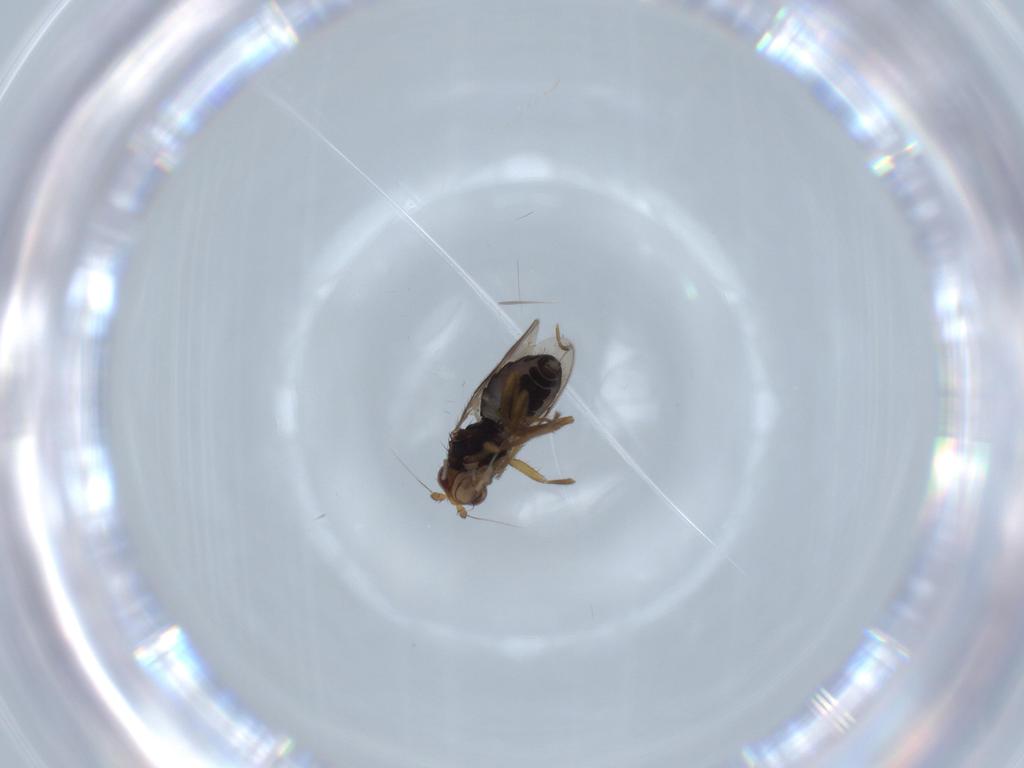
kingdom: Animalia
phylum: Arthropoda
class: Insecta
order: Diptera
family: Cecidomyiidae
